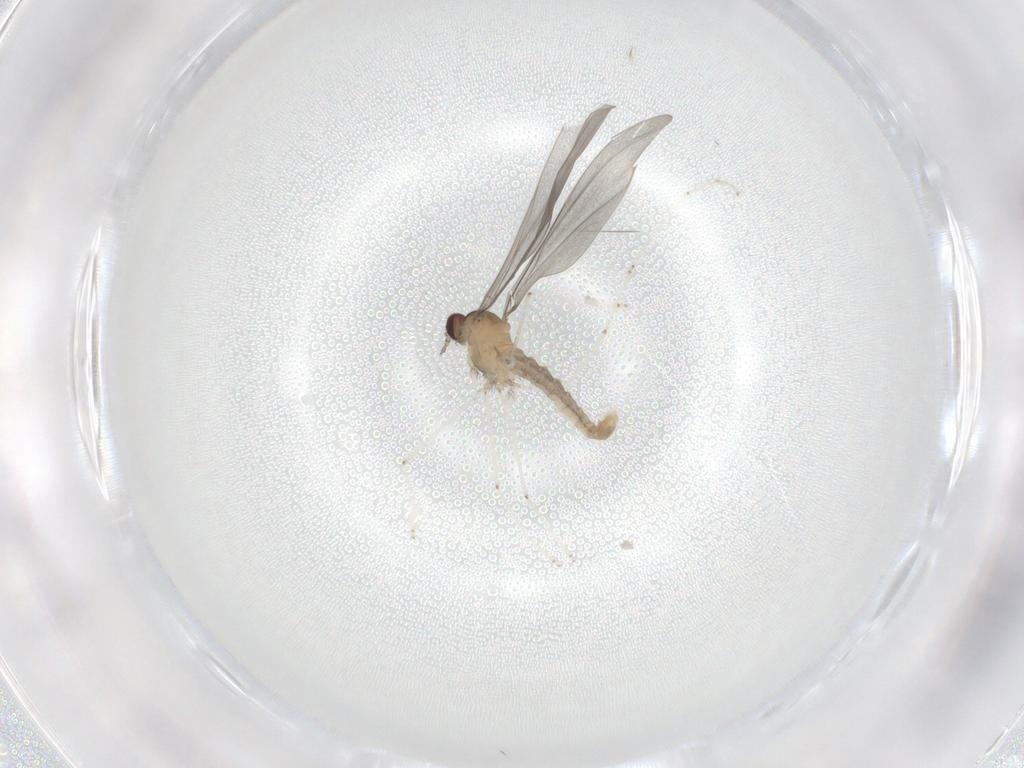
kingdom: Animalia
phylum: Arthropoda
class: Insecta
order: Diptera
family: Cecidomyiidae
